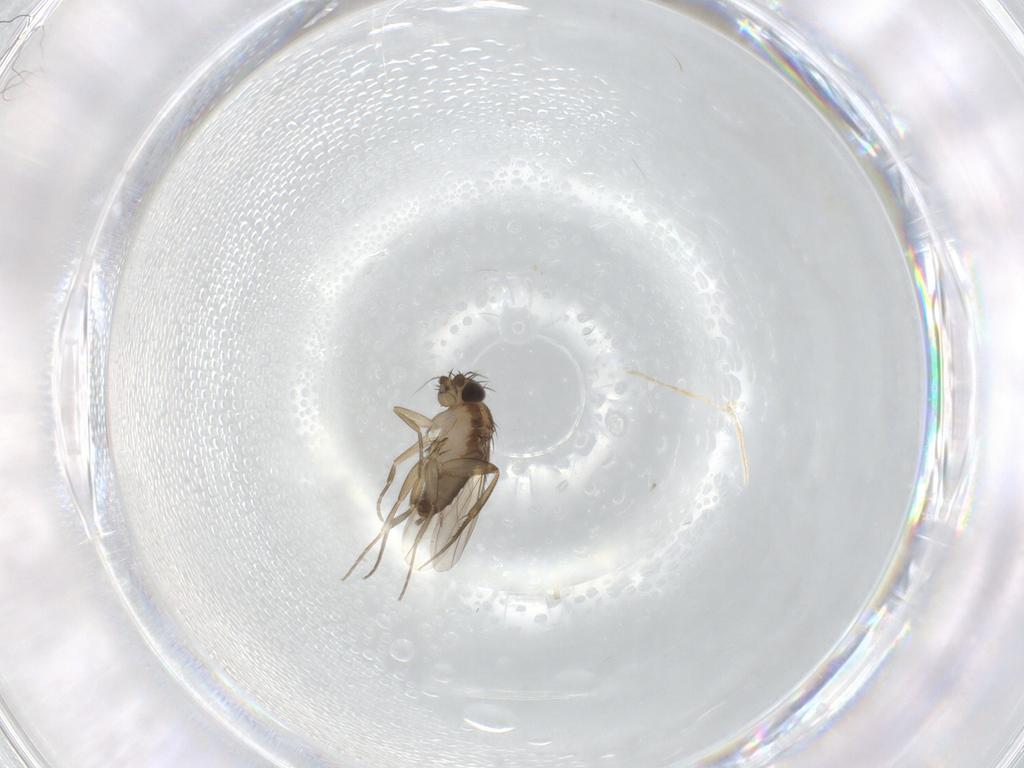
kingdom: Animalia
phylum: Arthropoda
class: Insecta
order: Diptera
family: Phoridae
